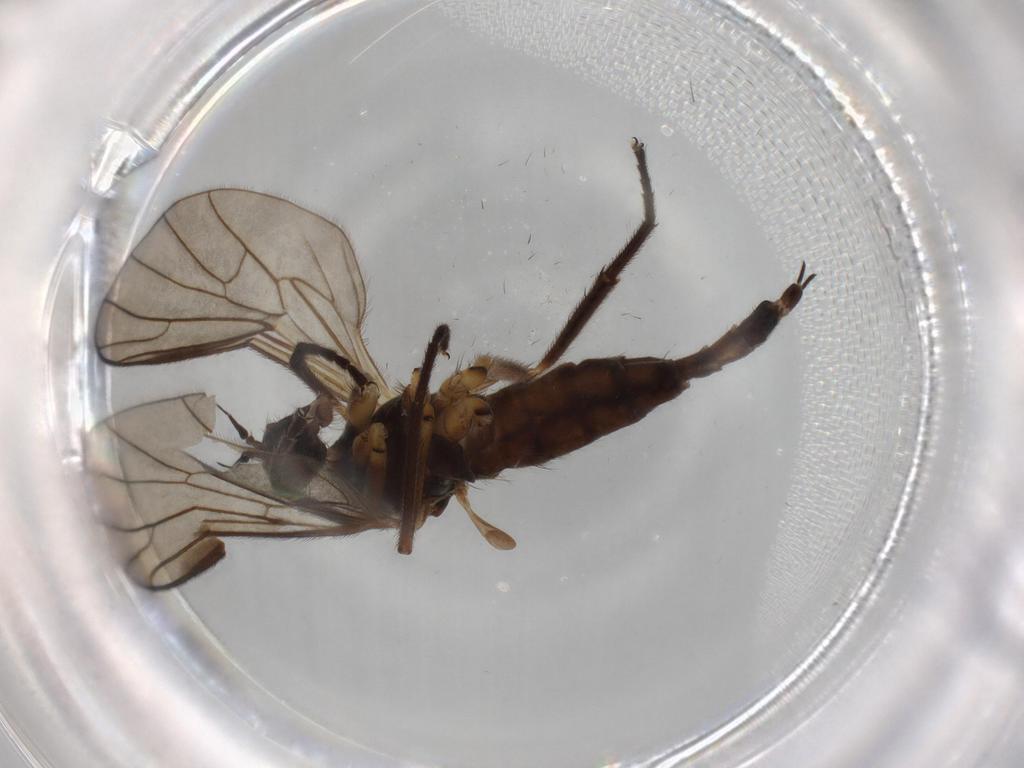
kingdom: Animalia
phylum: Arthropoda
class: Insecta
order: Diptera
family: Empididae
